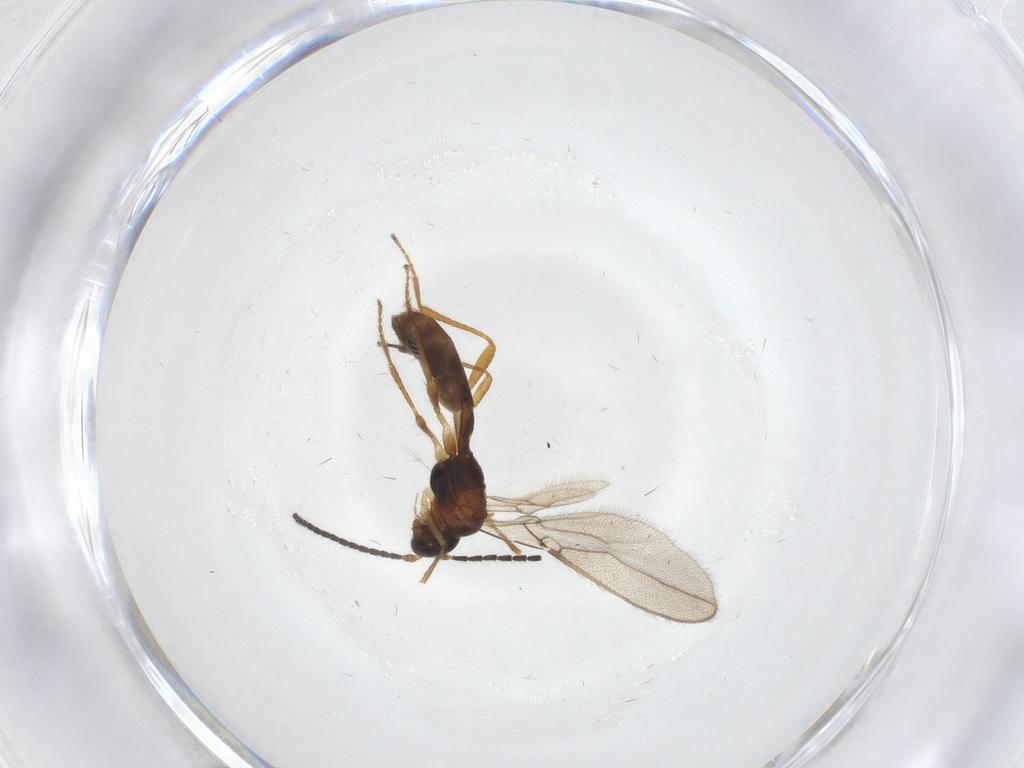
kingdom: Animalia
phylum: Arthropoda
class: Insecta
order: Hymenoptera
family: Braconidae
